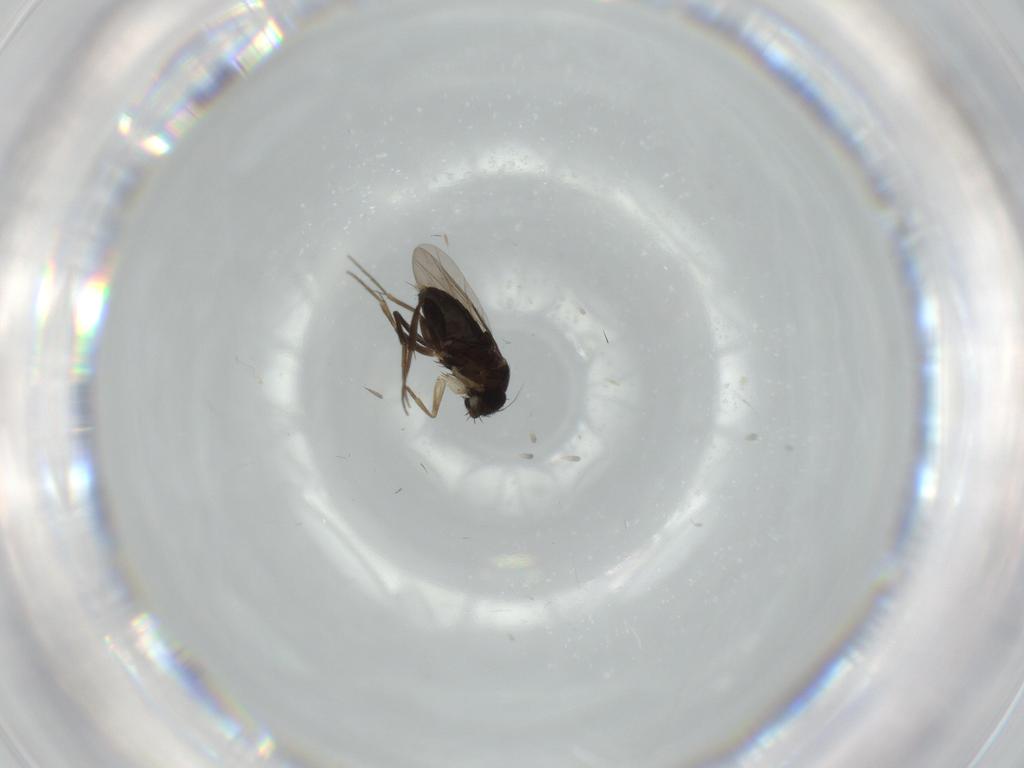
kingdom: Animalia
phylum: Arthropoda
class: Insecta
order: Diptera
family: Phoridae
